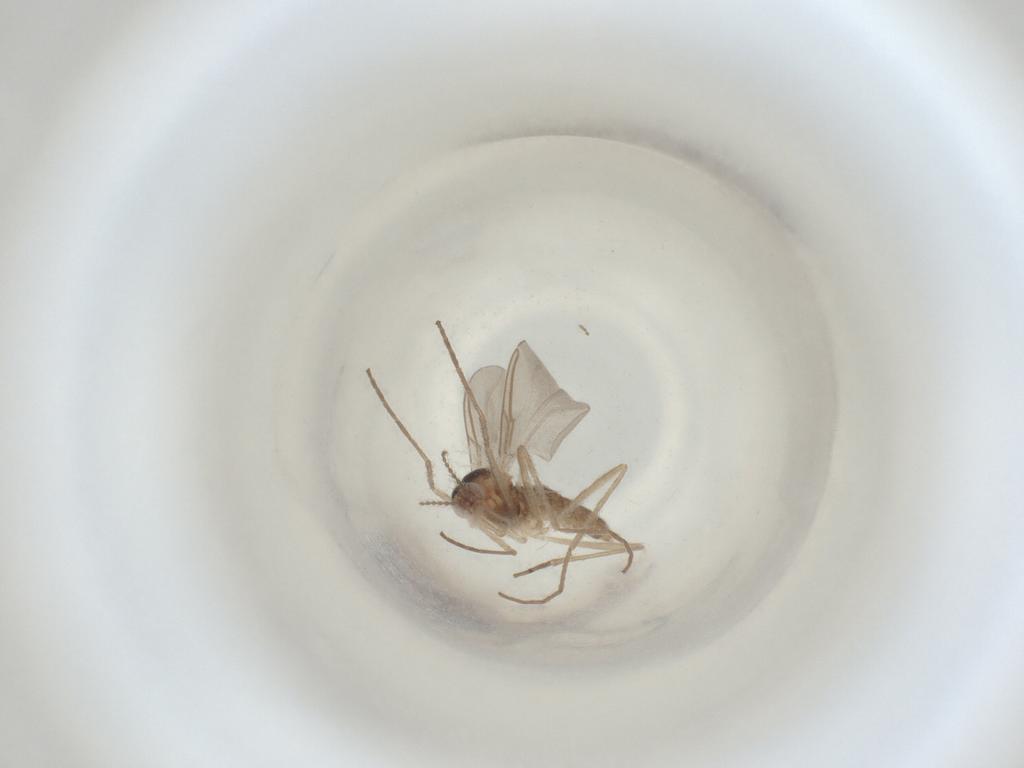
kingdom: Animalia
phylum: Arthropoda
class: Insecta
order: Diptera
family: Cecidomyiidae
